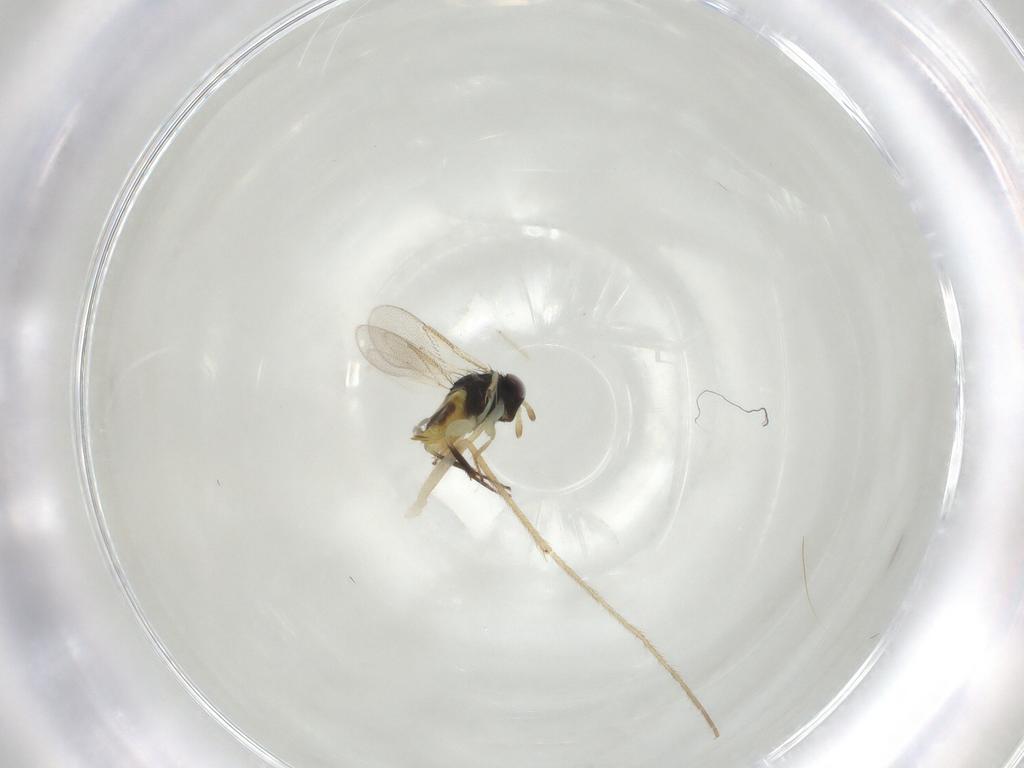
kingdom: Animalia
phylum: Arthropoda
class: Insecta
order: Hymenoptera
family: Aphelinidae
